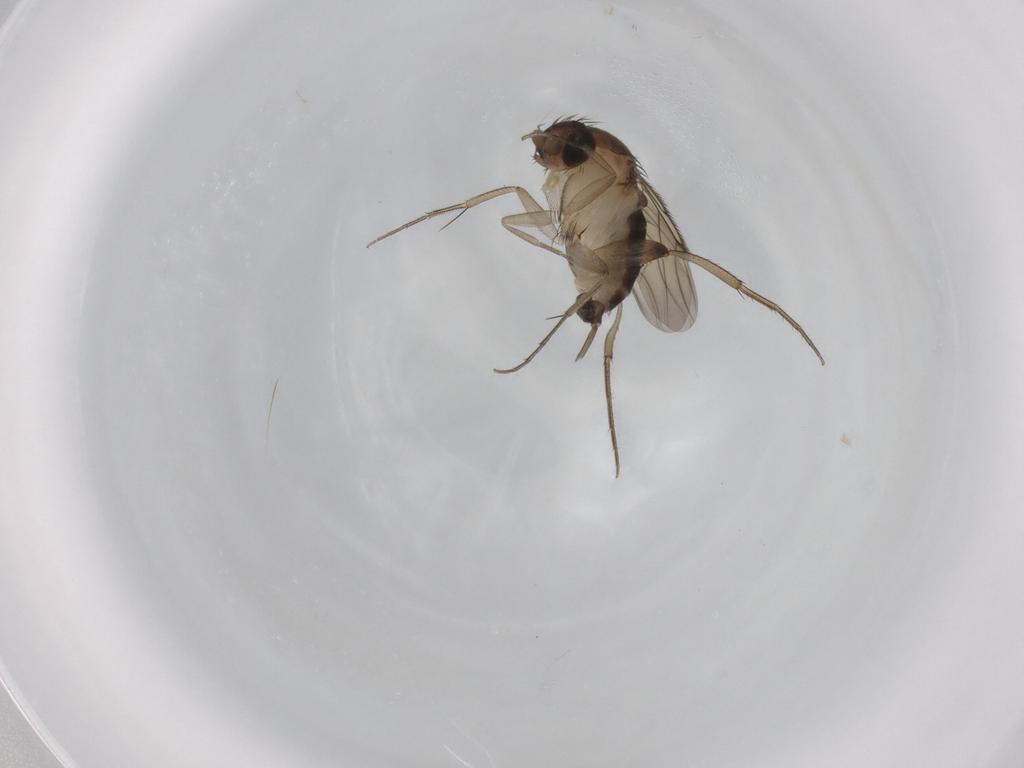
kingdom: Animalia
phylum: Arthropoda
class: Insecta
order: Diptera
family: Phoridae
